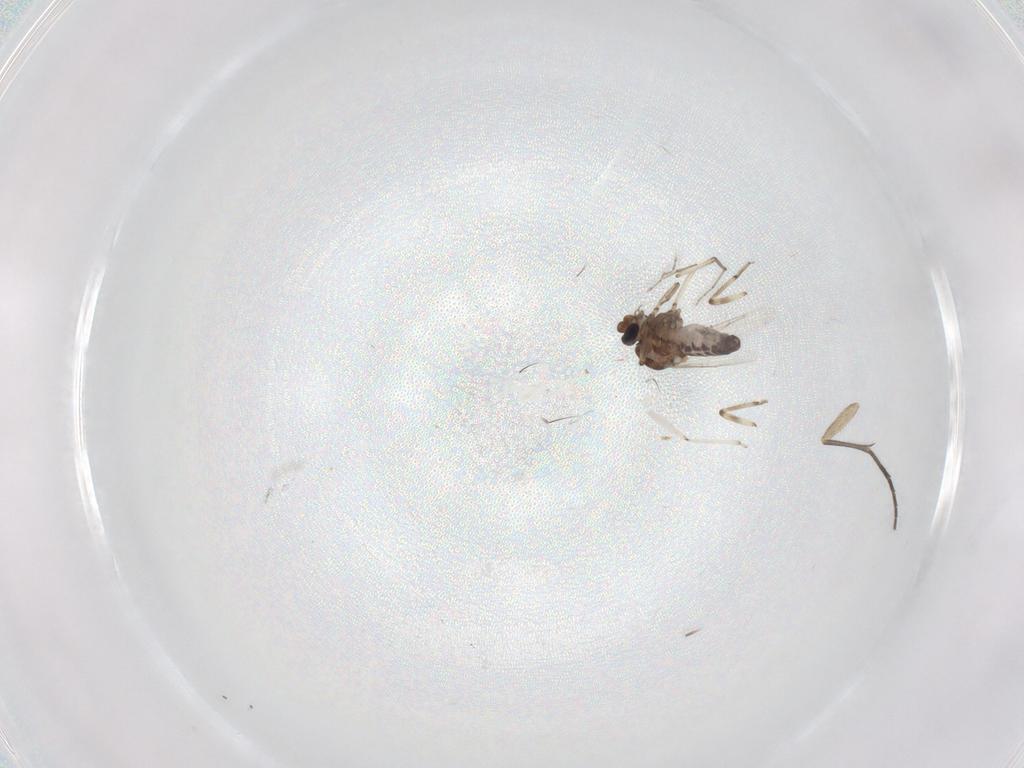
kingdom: Animalia
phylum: Arthropoda
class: Insecta
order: Diptera
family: Ceratopogonidae
